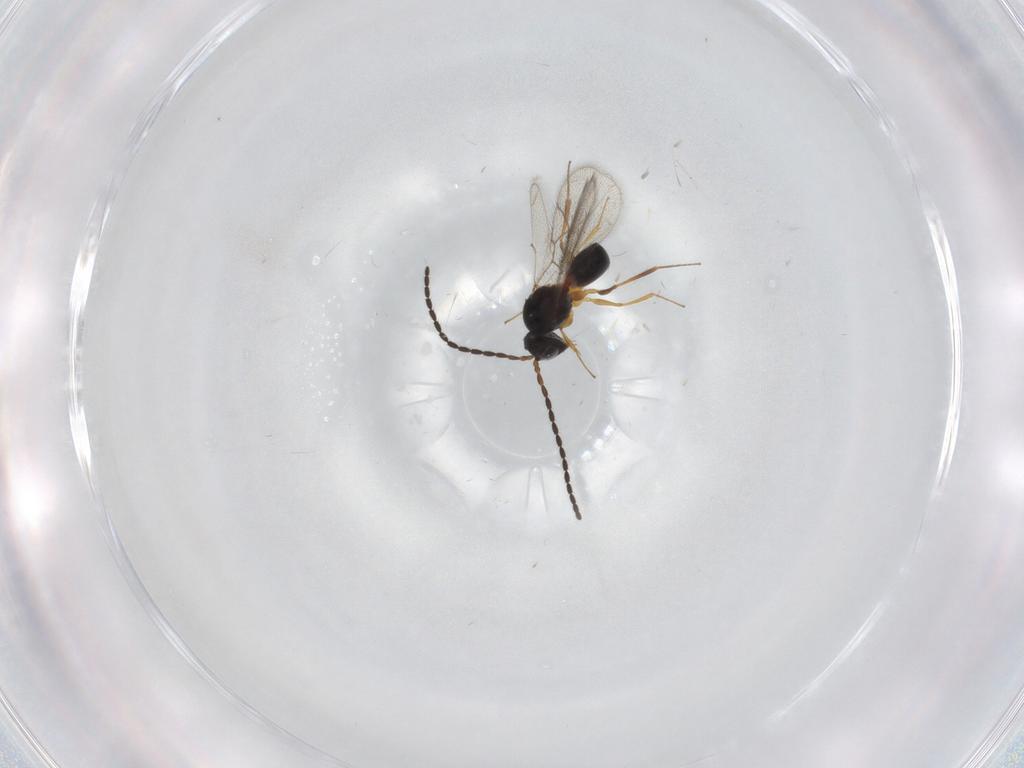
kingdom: Animalia
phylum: Arthropoda
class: Insecta
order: Hymenoptera
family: Figitidae
